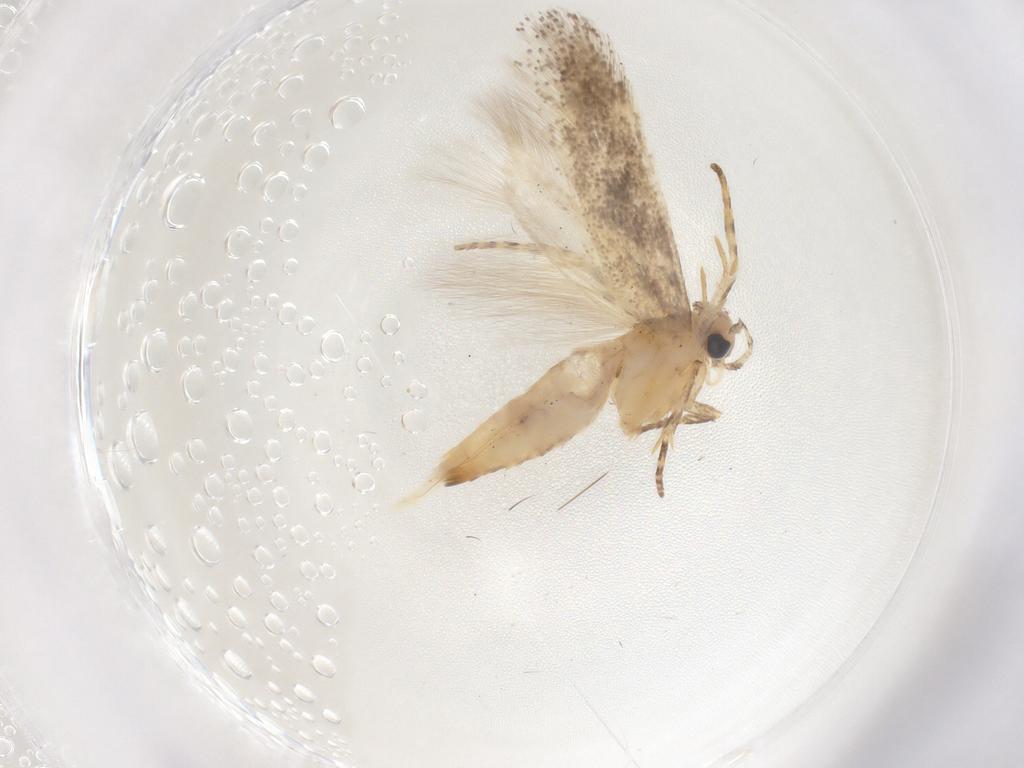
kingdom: Animalia
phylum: Arthropoda
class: Insecta
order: Lepidoptera
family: Gelechiidae
